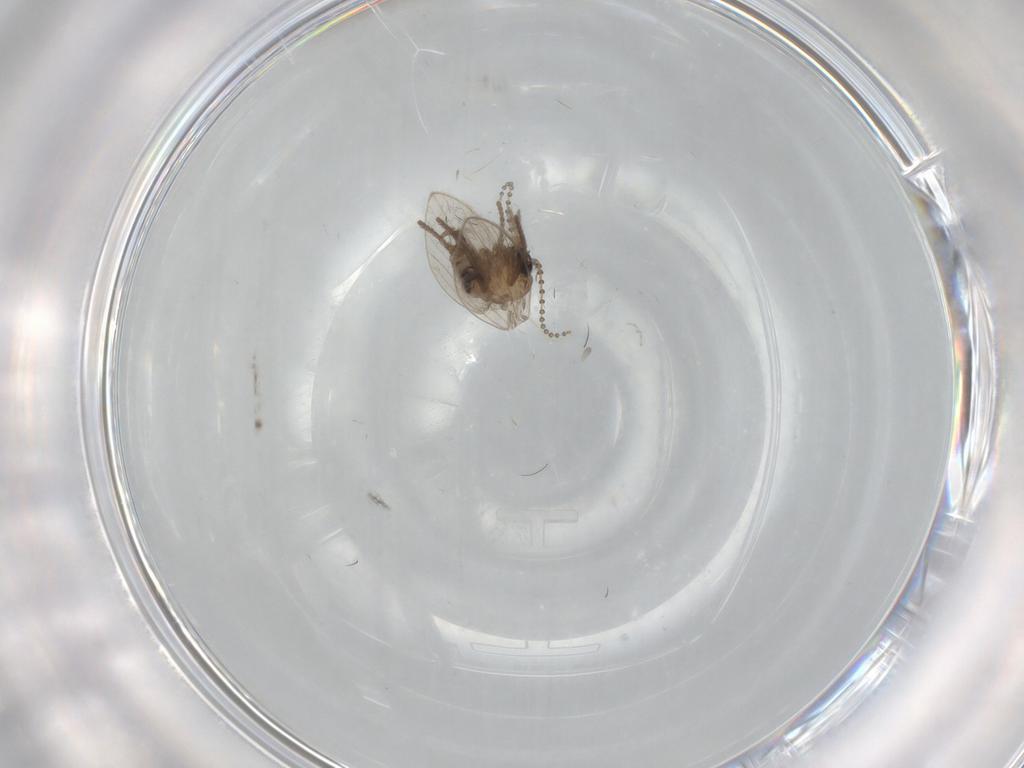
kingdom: Animalia
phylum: Arthropoda
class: Insecta
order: Diptera
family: Psychodidae
